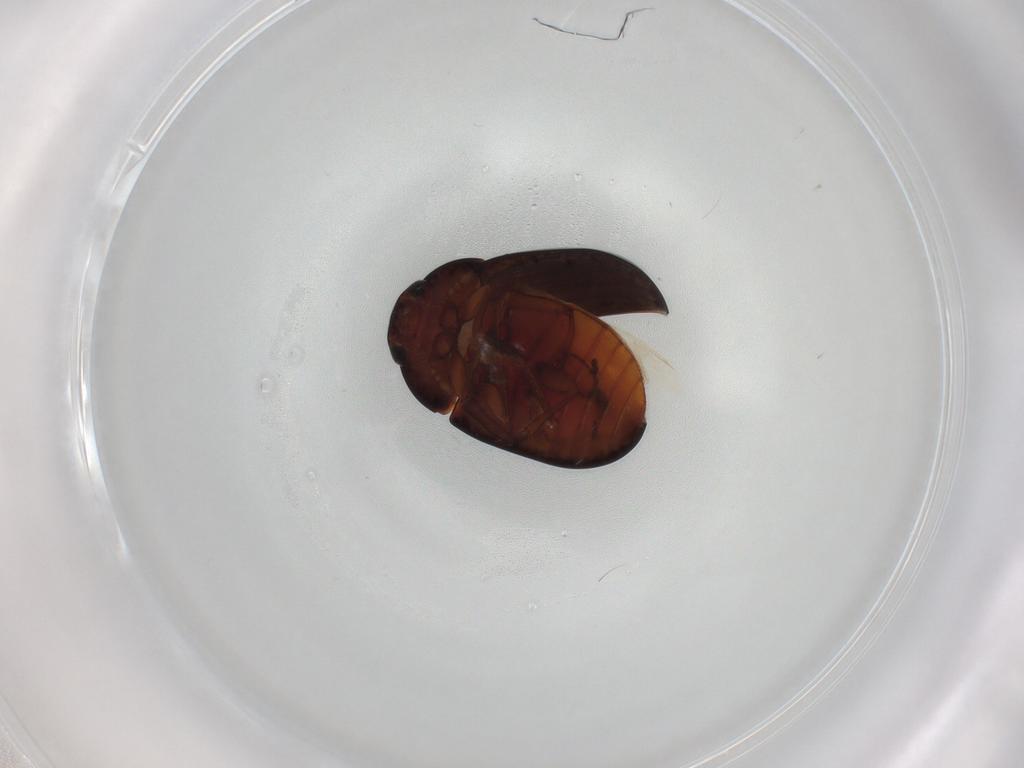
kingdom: Animalia
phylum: Arthropoda
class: Insecta
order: Coleoptera
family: Phalacridae
